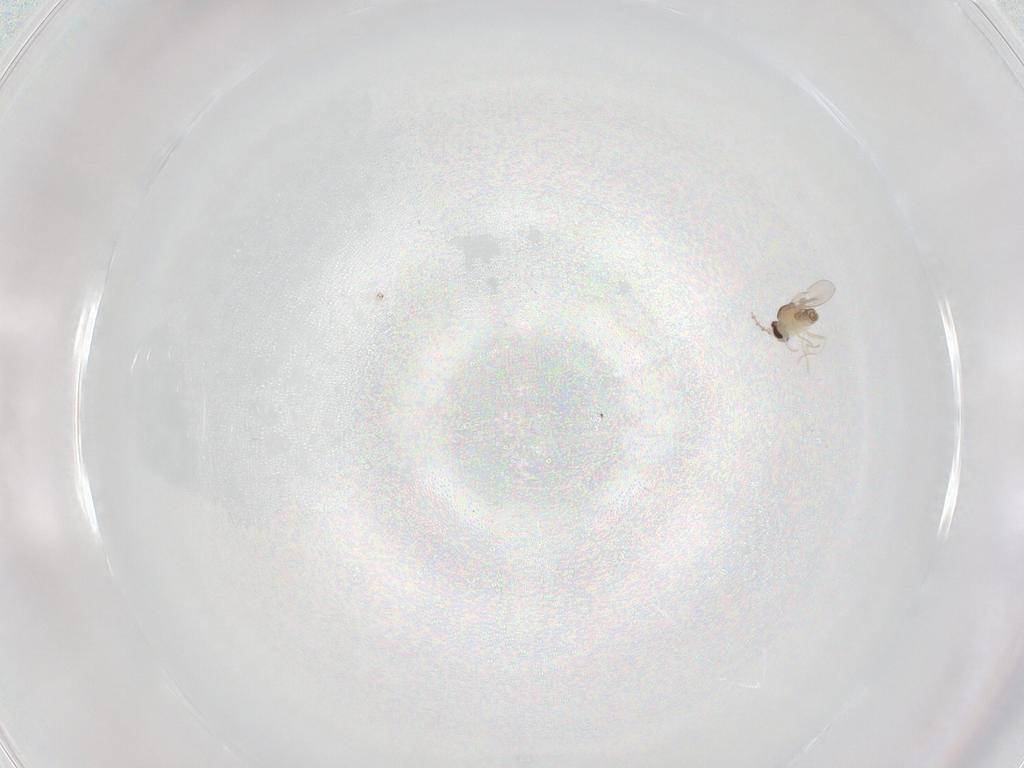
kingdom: Animalia
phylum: Arthropoda
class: Insecta
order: Diptera
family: Cecidomyiidae
